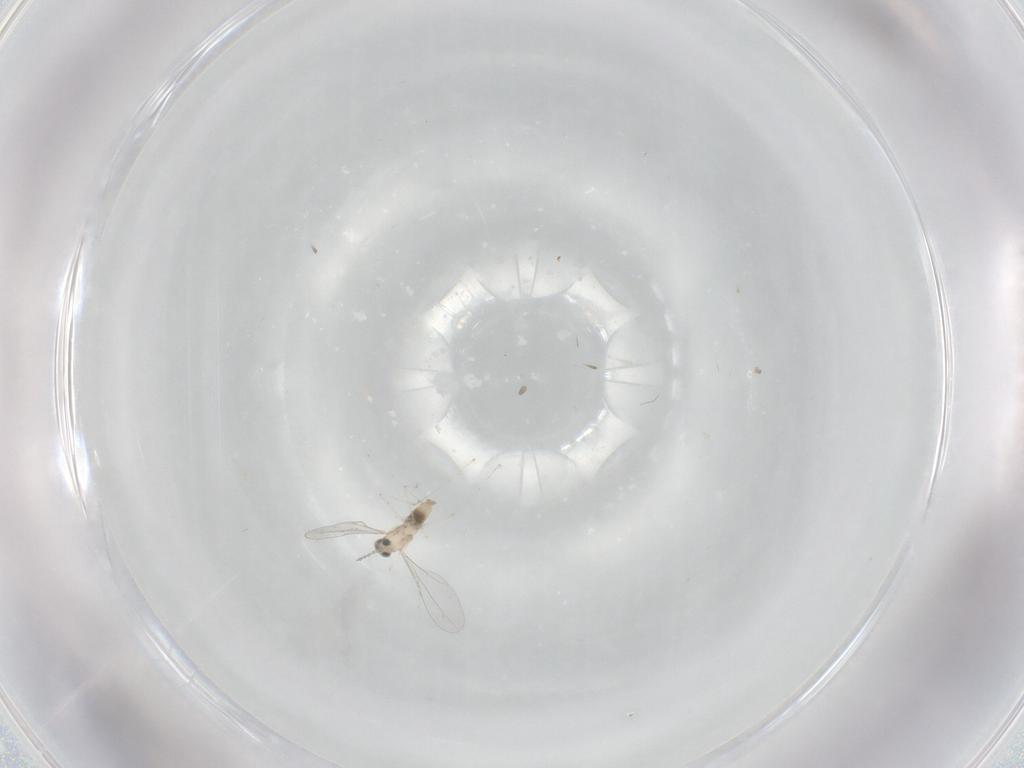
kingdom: Animalia
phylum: Arthropoda
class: Insecta
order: Diptera
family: Cecidomyiidae
